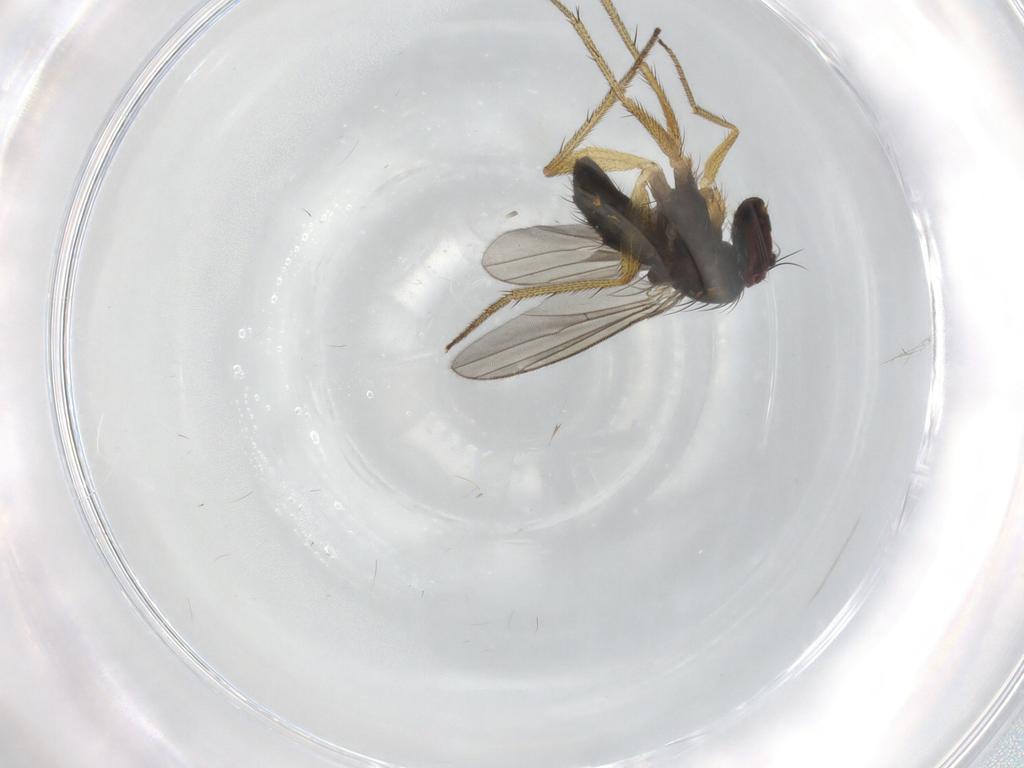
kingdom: Animalia
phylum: Arthropoda
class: Insecta
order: Diptera
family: Dolichopodidae
